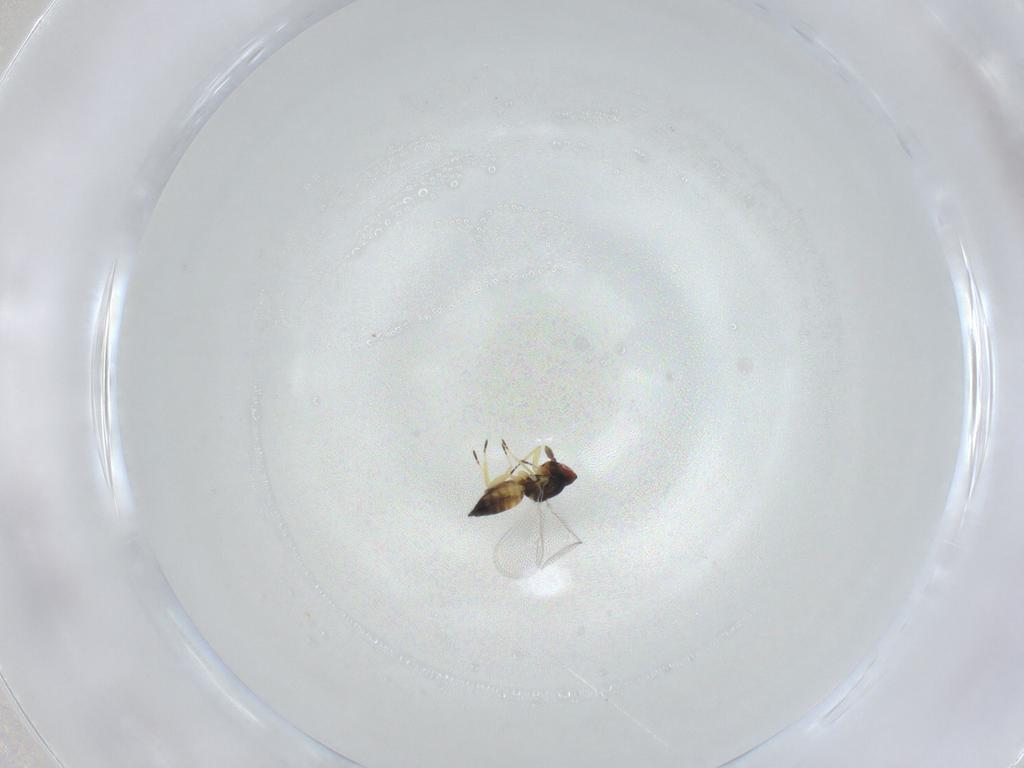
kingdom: Animalia
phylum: Arthropoda
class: Insecta
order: Hymenoptera
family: Eulophidae
